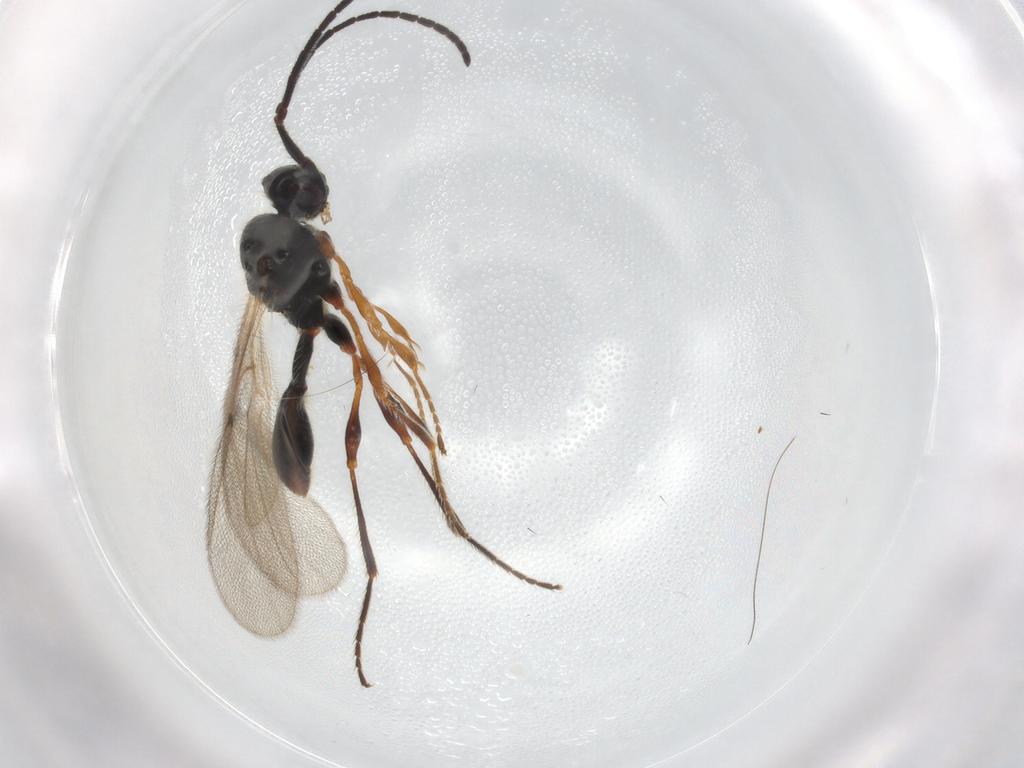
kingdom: Animalia
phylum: Arthropoda
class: Insecta
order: Hymenoptera
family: Diapriidae
